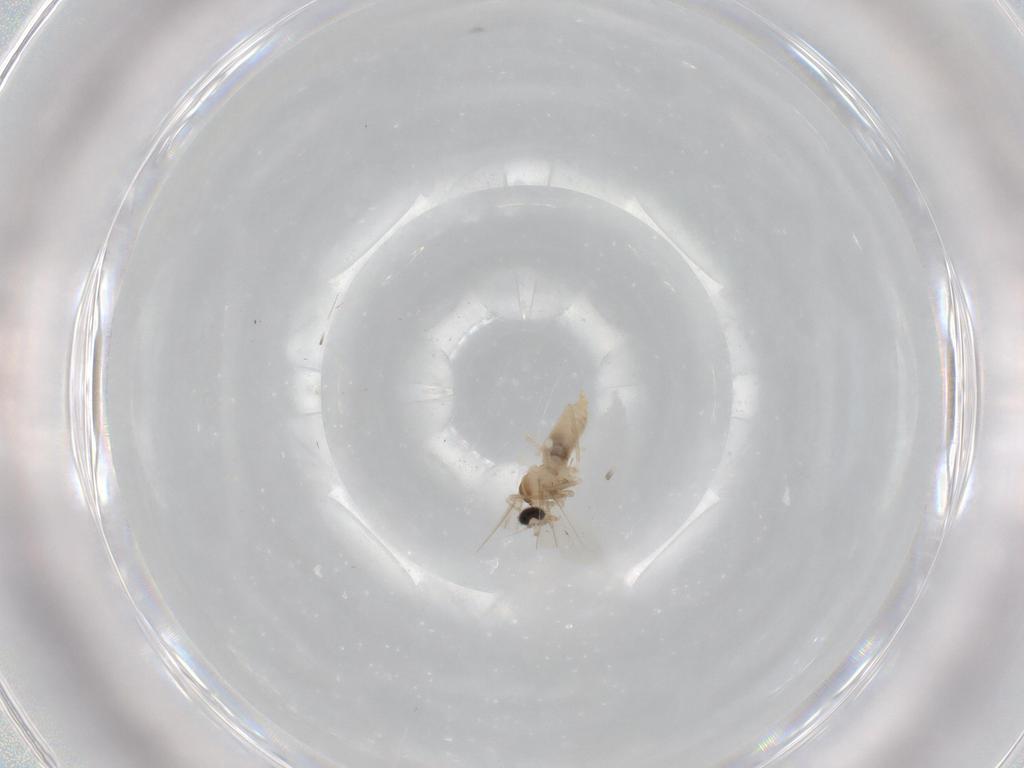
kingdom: Animalia
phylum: Arthropoda
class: Insecta
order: Diptera
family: Cecidomyiidae
